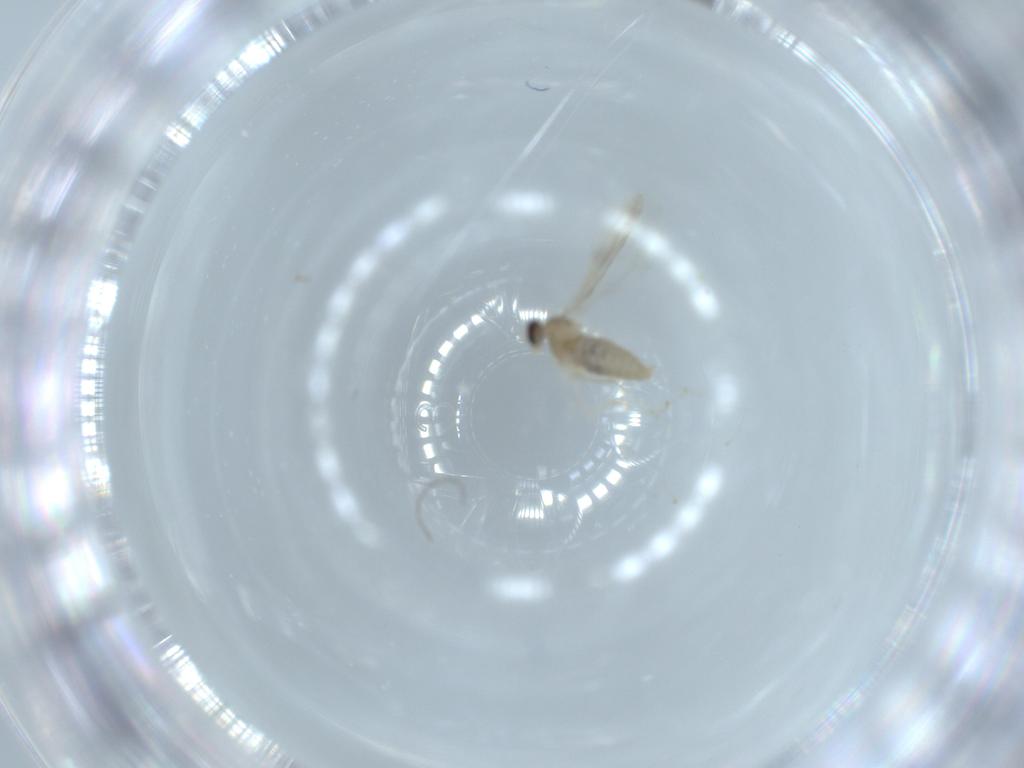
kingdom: Animalia
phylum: Arthropoda
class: Insecta
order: Diptera
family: Cecidomyiidae
